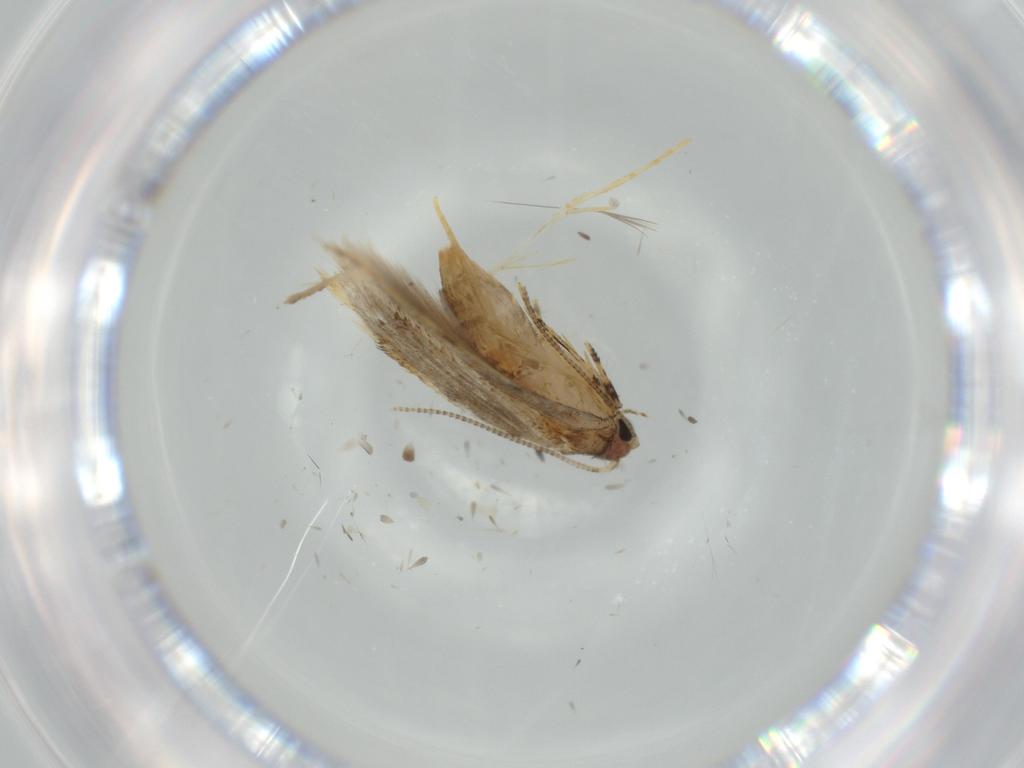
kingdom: Animalia
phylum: Arthropoda
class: Insecta
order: Lepidoptera
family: Tineidae
